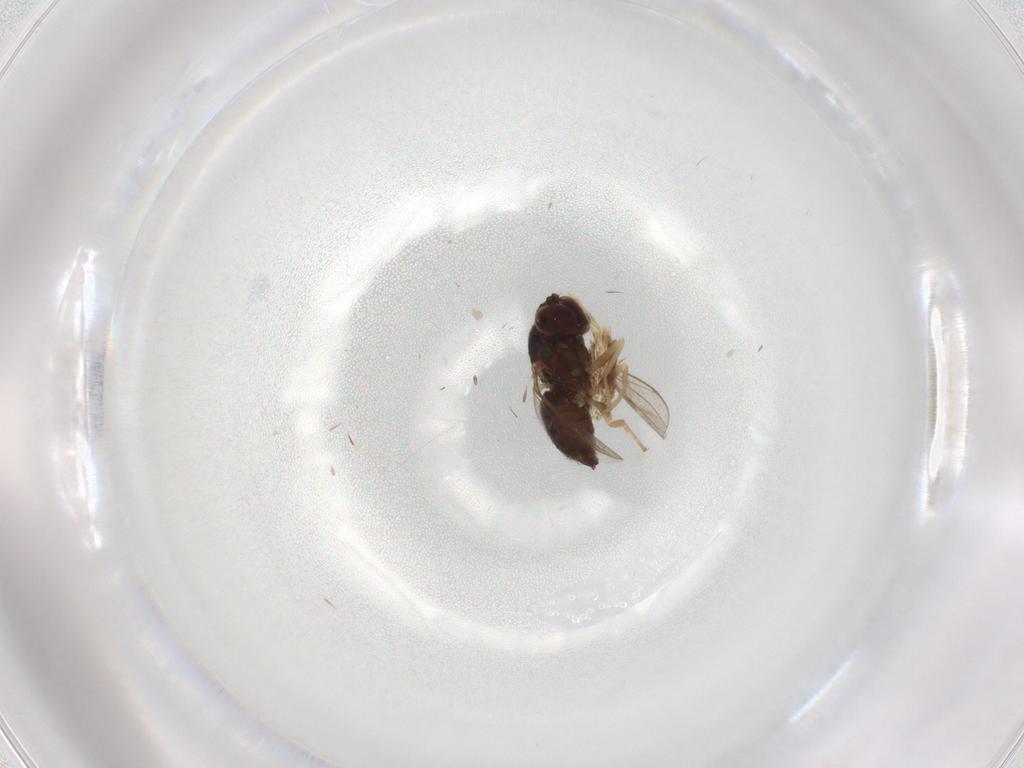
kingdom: Animalia
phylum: Arthropoda
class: Insecta
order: Diptera
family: Dolichopodidae
